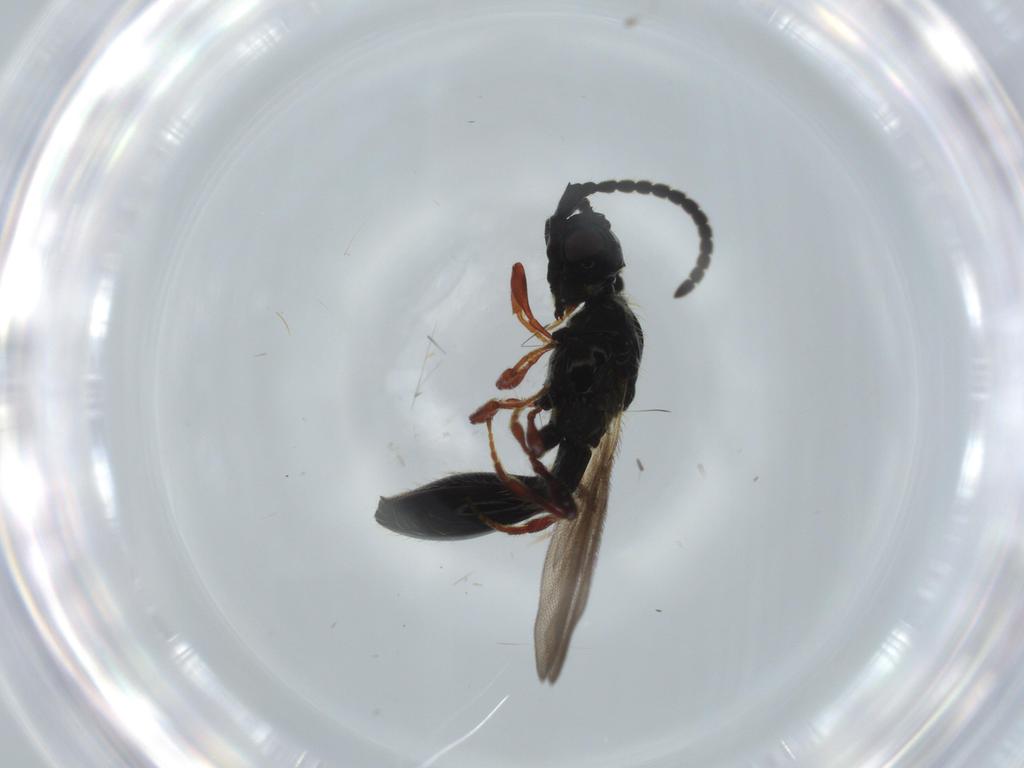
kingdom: Animalia
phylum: Arthropoda
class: Insecta
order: Hymenoptera
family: Diapriidae
